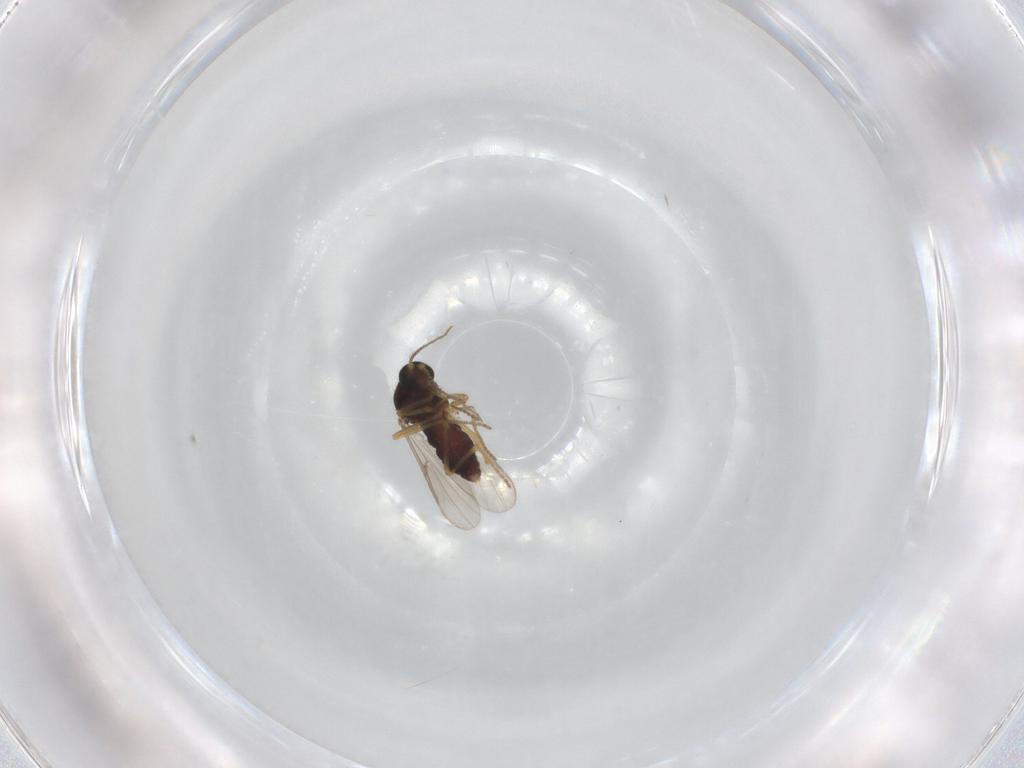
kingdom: Animalia
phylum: Arthropoda
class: Insecta
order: Diptera
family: Ceratopogonidae
